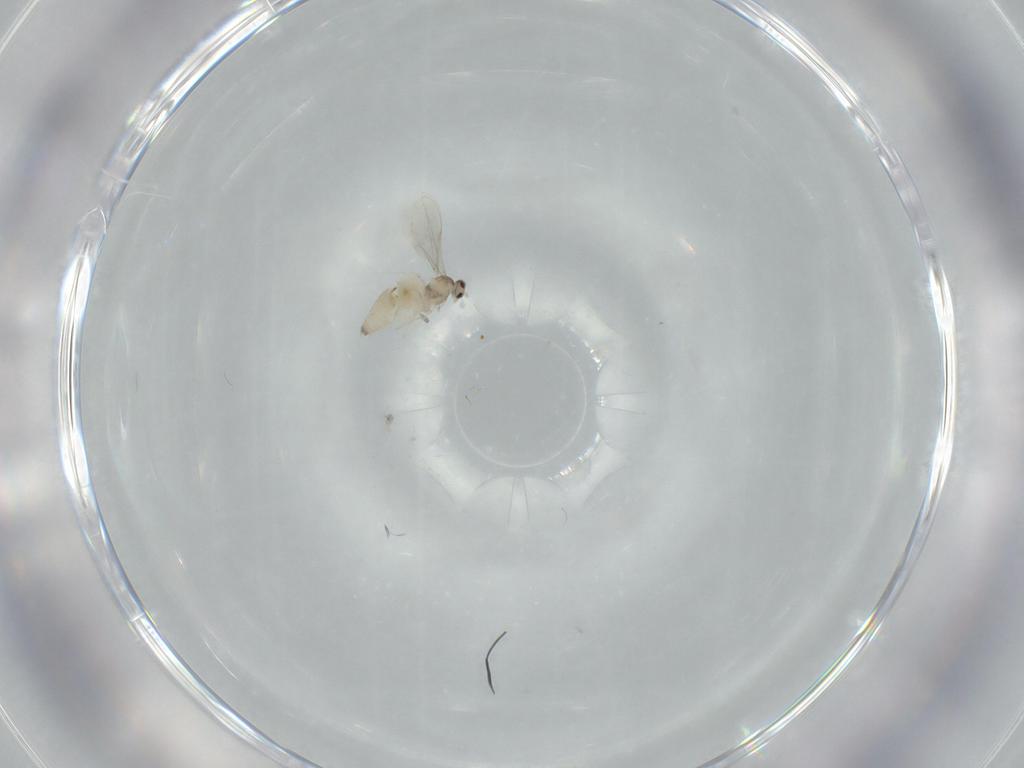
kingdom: Animalia
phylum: Arthropoda
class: Insecta
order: Diptera
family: Cecidomyiidae
